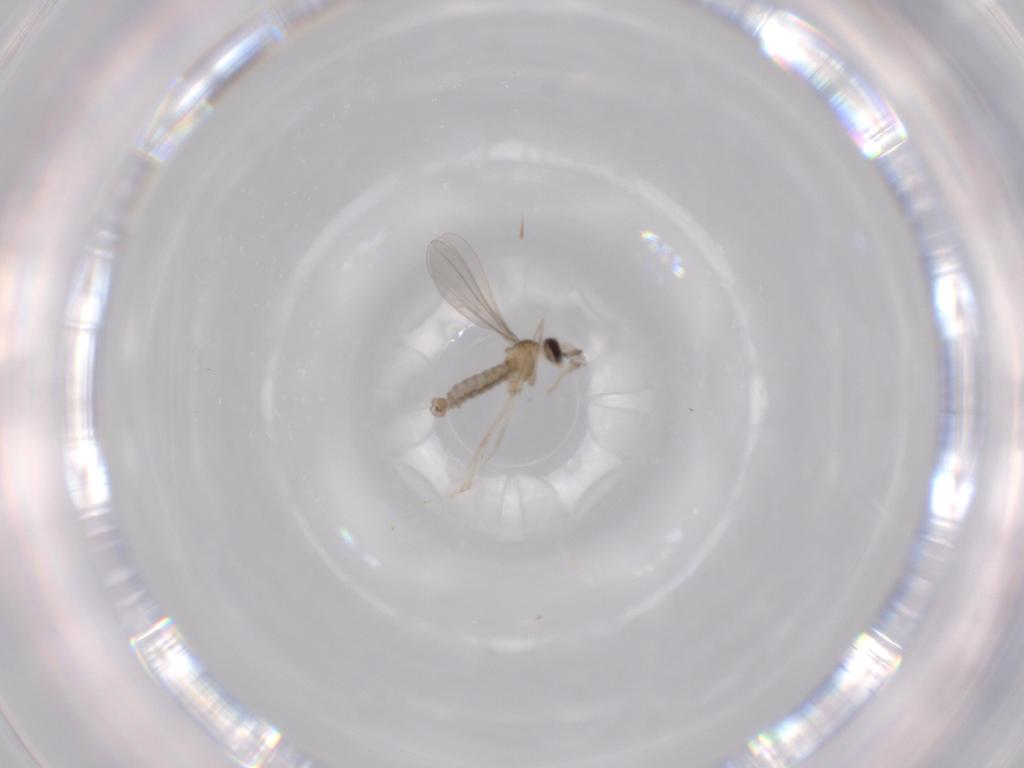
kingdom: Animalia
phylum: Arthropoda
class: Insecta
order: Diptera
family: Cecidomyiidae
